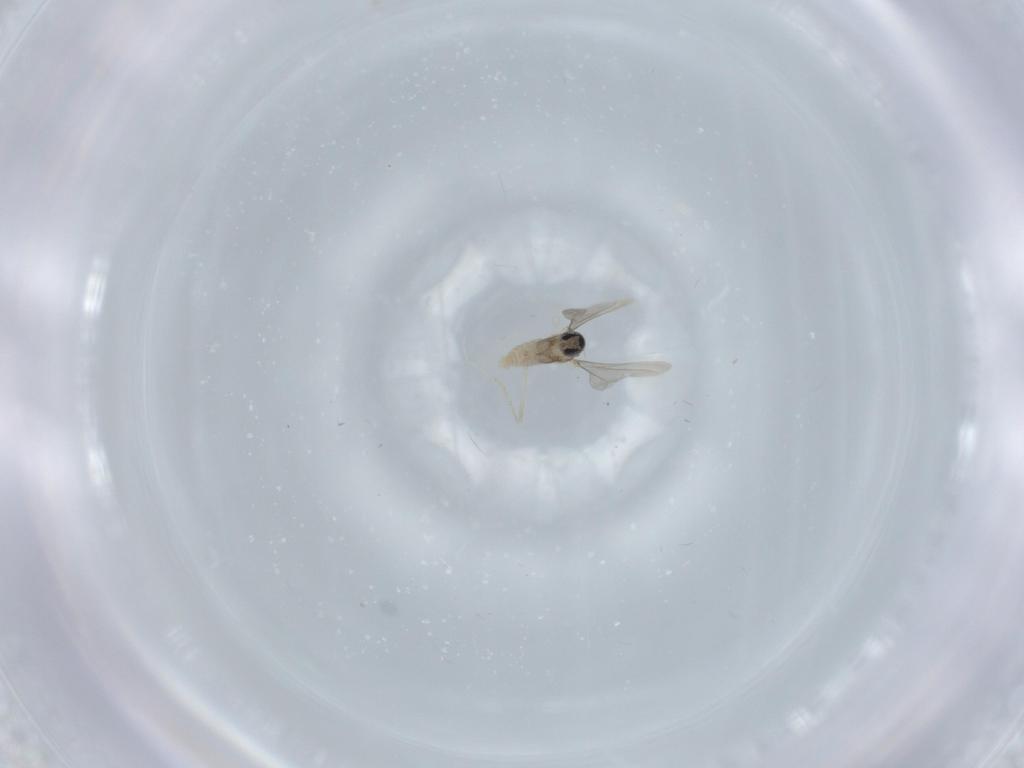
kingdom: Animalia
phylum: Arthropoda
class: Insecta
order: Diptera
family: Cecidomyiidae
